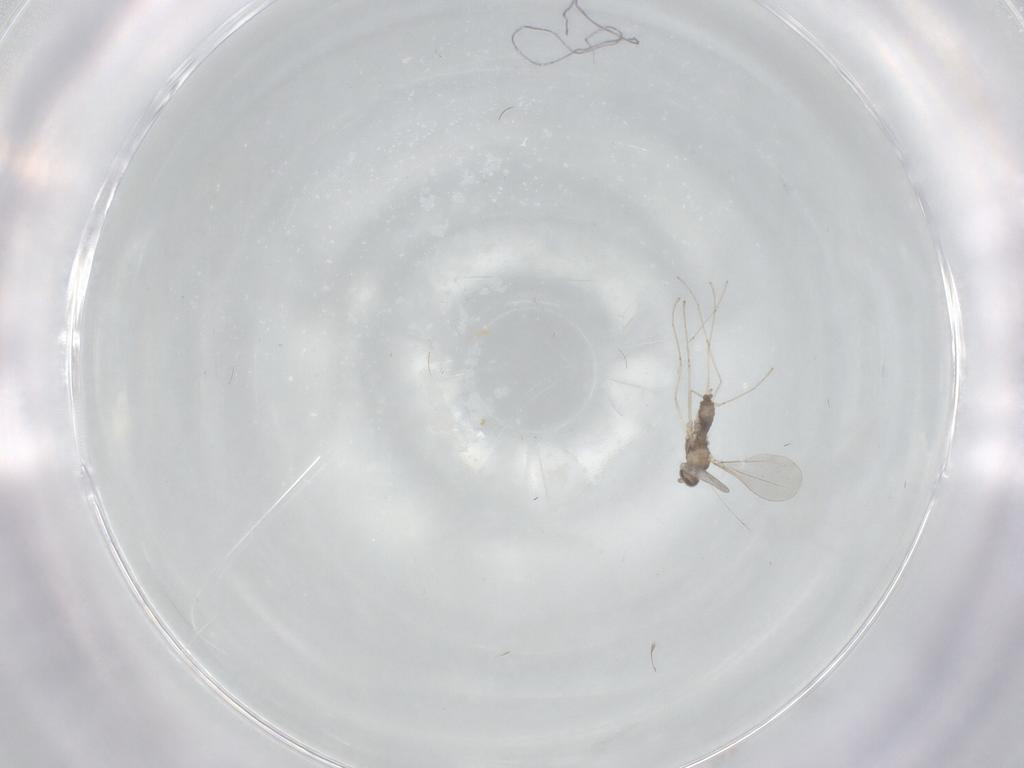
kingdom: Animalia
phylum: Arthropoda
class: Insecta
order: Diptera
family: Cecidomyiidae
